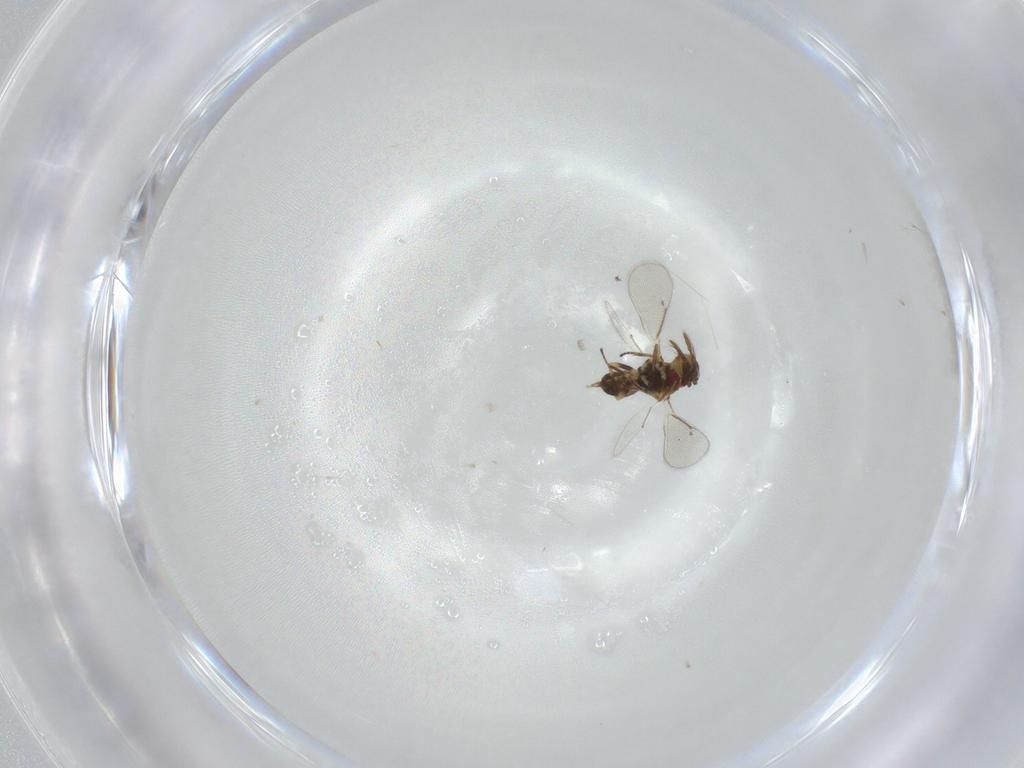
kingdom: Animalia
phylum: Arthropoda
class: Insecta
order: Hymenoptera
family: Eulophidae
